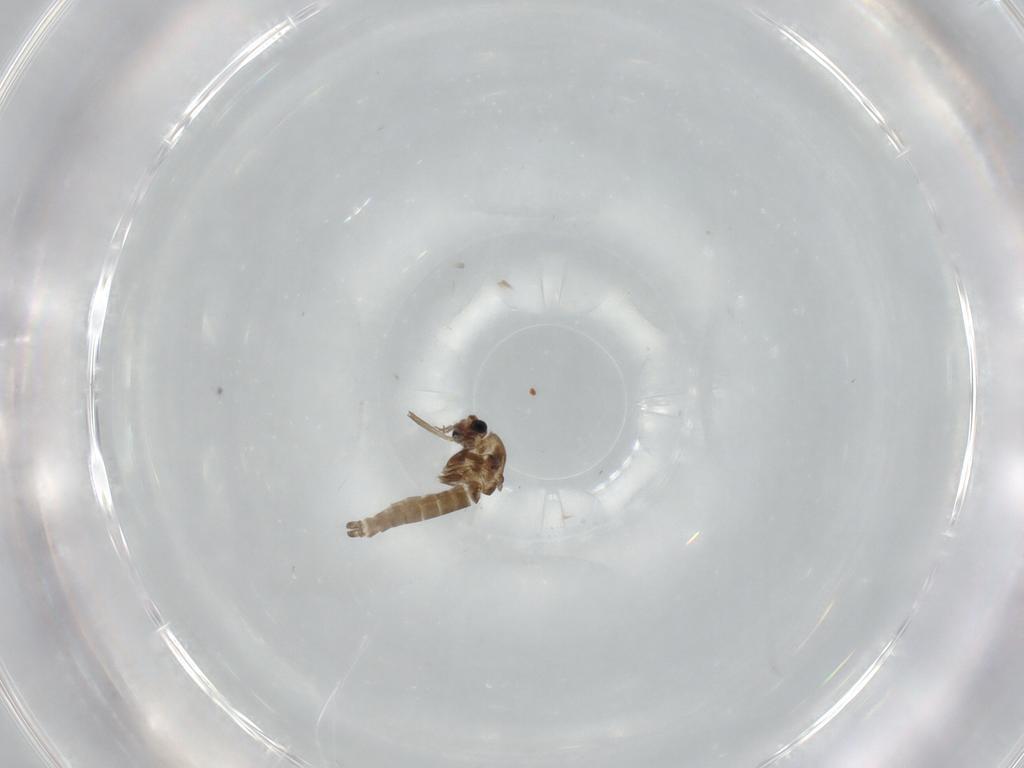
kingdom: Animalia
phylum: Arthropoda
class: Insecta
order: Diptera
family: Chironomidae
